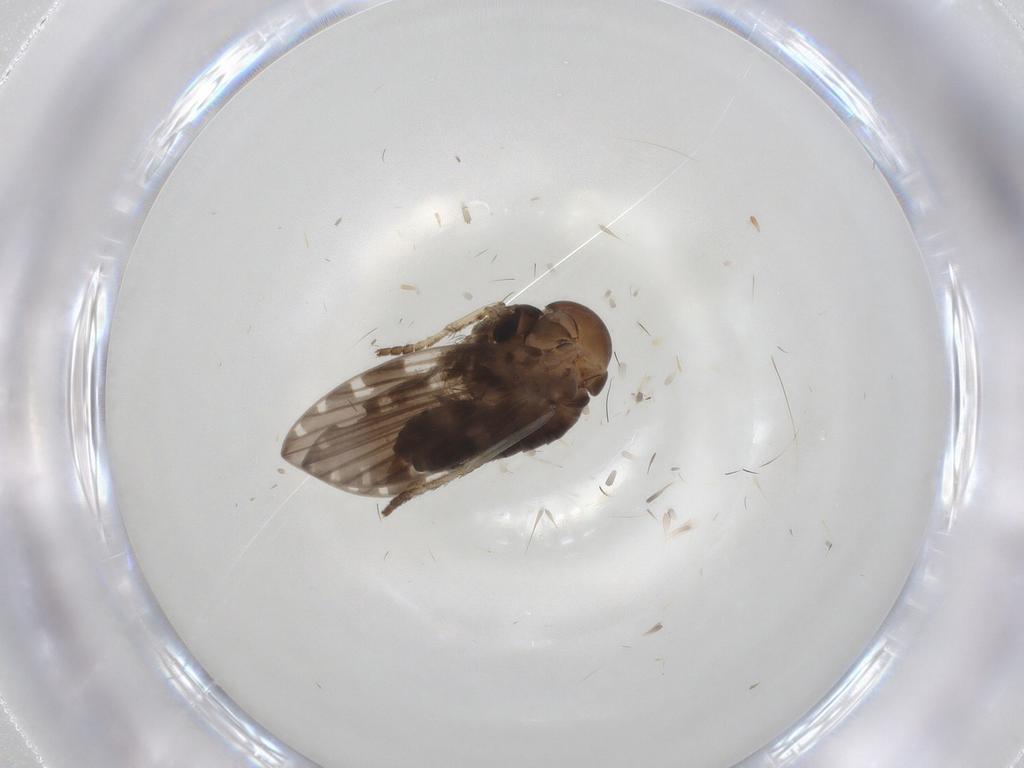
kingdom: Animalia
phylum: Arthropoda
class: Insecta
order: Diptera
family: Psychodidae
